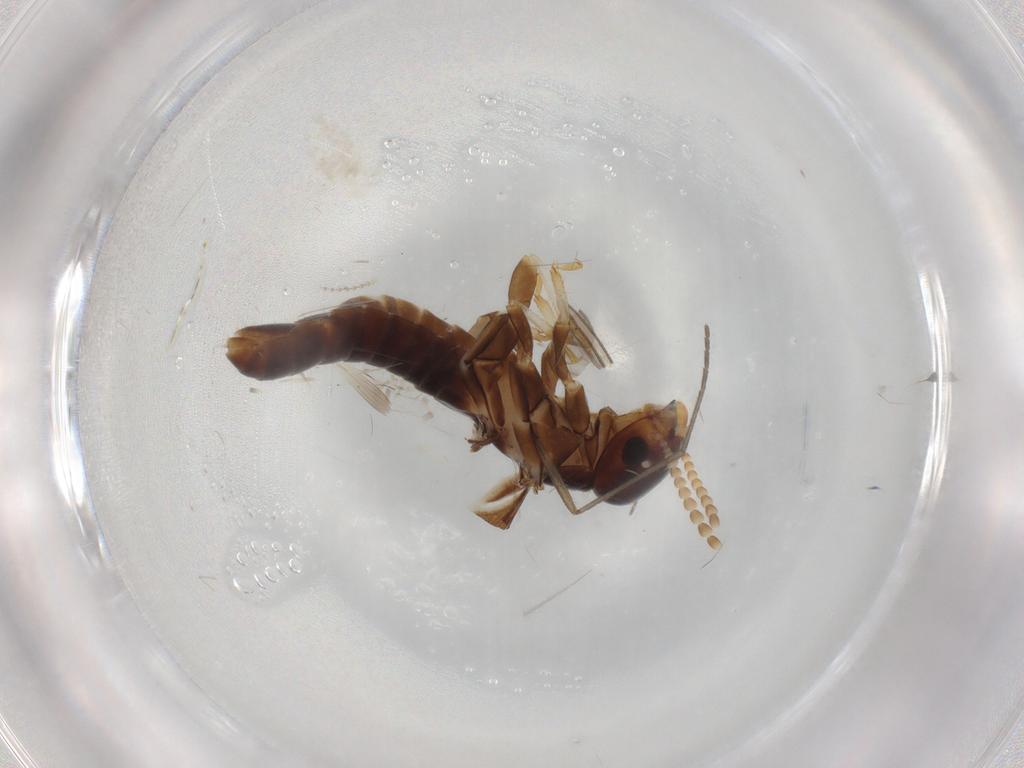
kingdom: Animalia
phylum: Arthropoda
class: Insecta
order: Blattodea
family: Kalotermitidae
